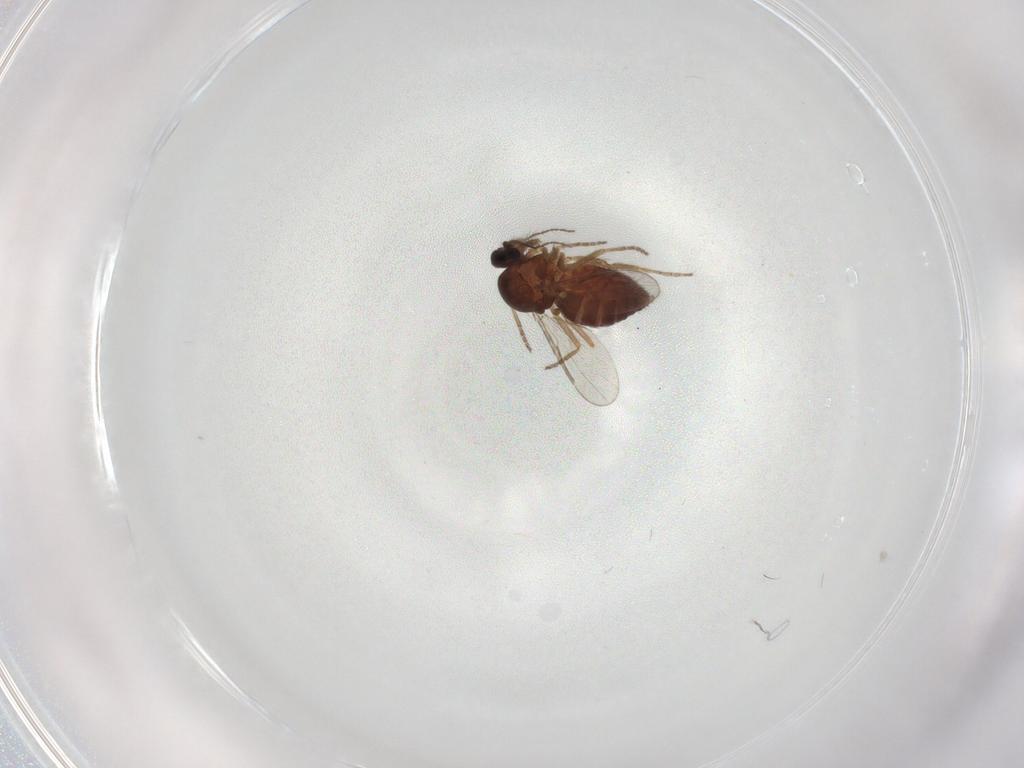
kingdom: Animalia
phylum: Arthropoda
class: Insecta
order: Diptera
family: Ceratopogonidae
